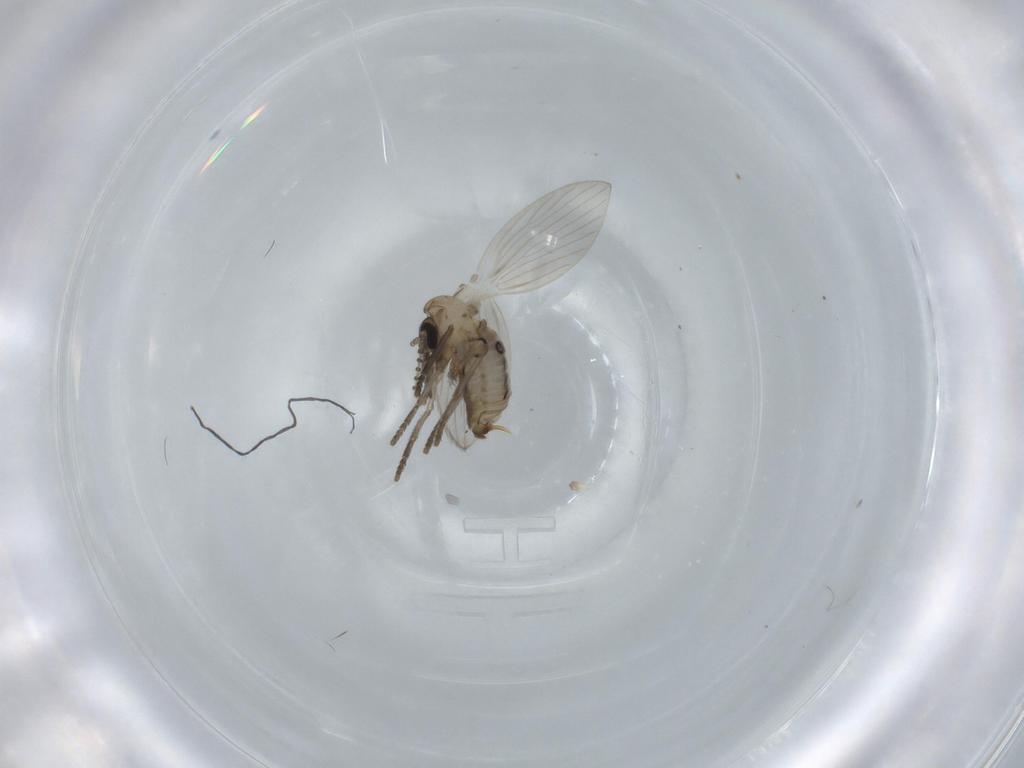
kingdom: Animalia
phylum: Arthropoda
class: Insecta
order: Diptera
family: Psychodidae
